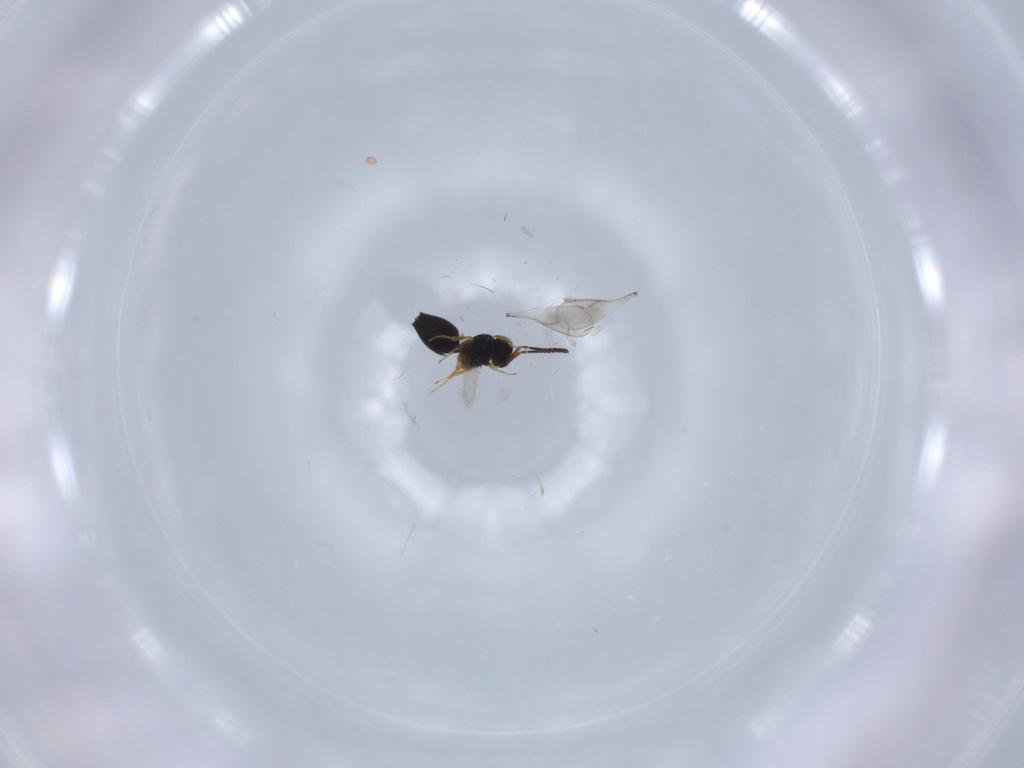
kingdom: Animalia
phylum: Arthropoda
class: Insecta
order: Hymenoptera
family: Scelionidae
